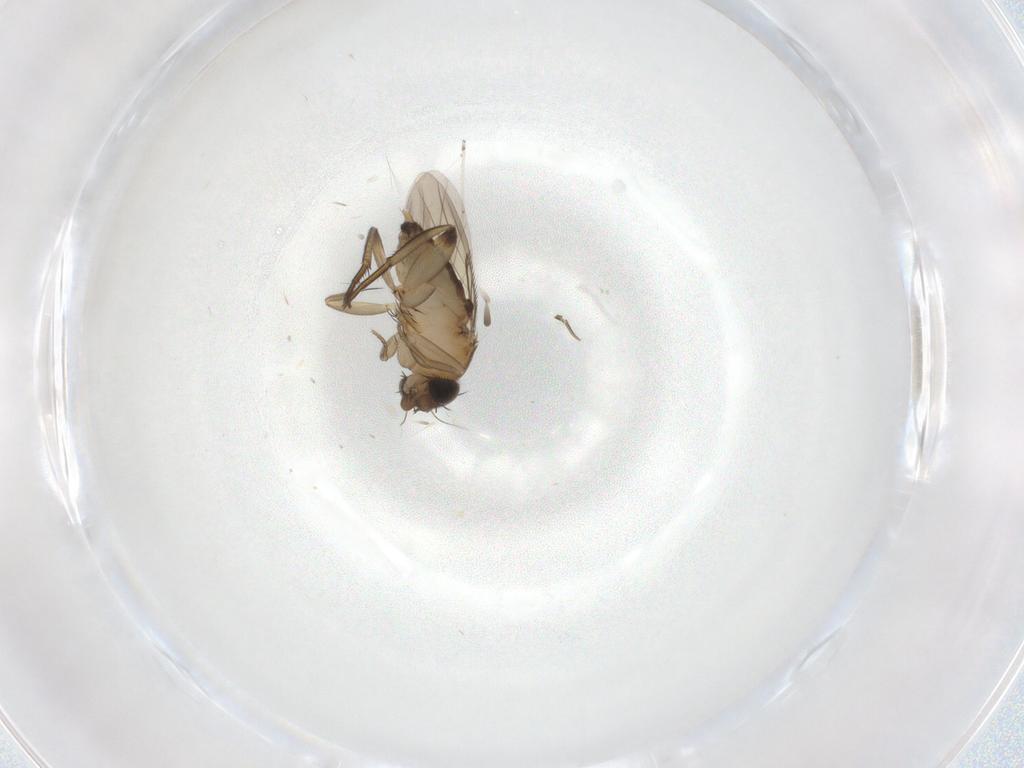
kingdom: Animalia
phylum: Arthropoda
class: Insecta
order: Diptera
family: Phoridae
